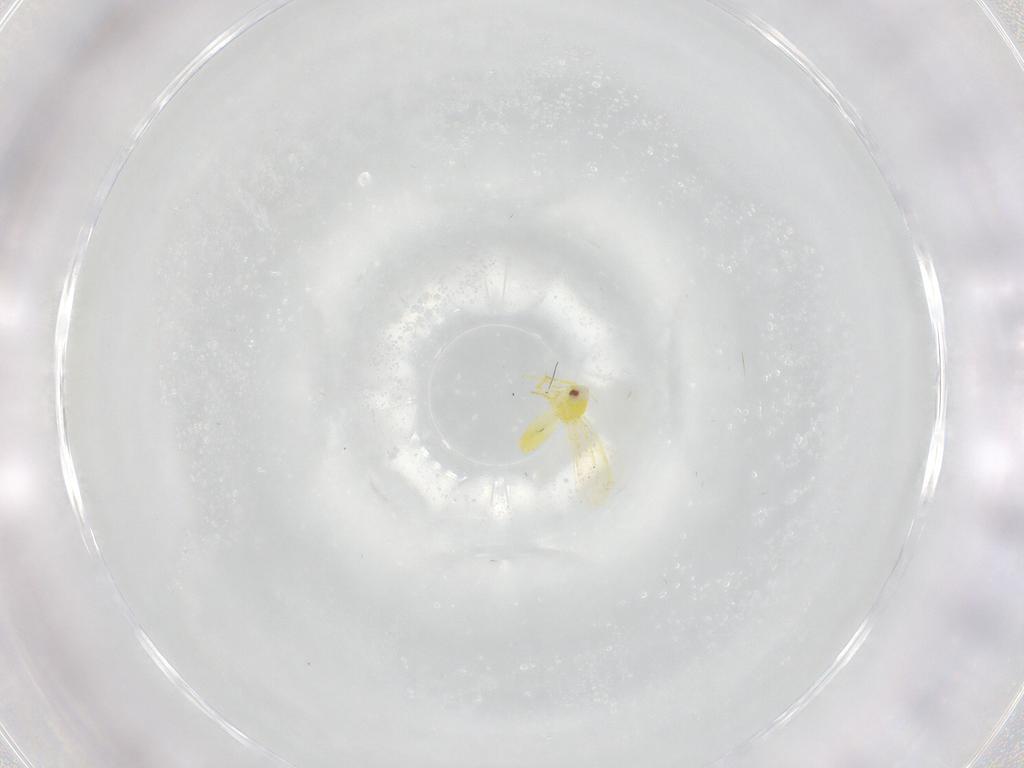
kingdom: Animalia
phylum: Arthropoda
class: Insecta
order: Hemiptera
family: Aleyrodidae
